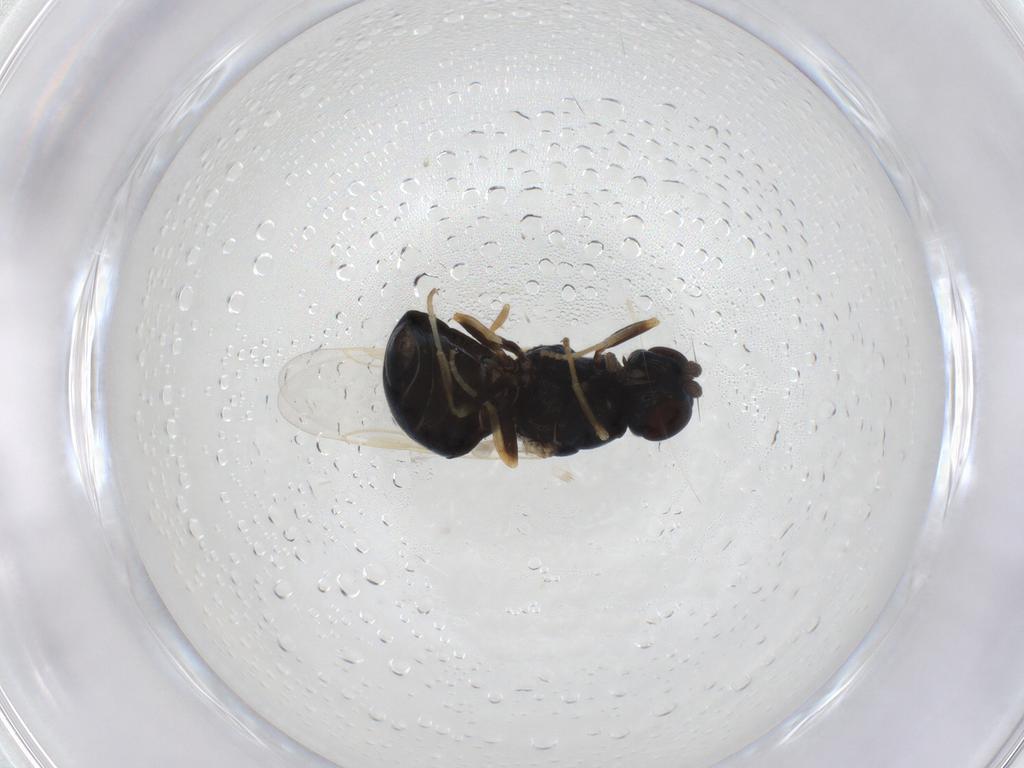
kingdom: Animalia
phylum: Arthropoda
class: Insecta
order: Diptera
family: Stratiomyidae
